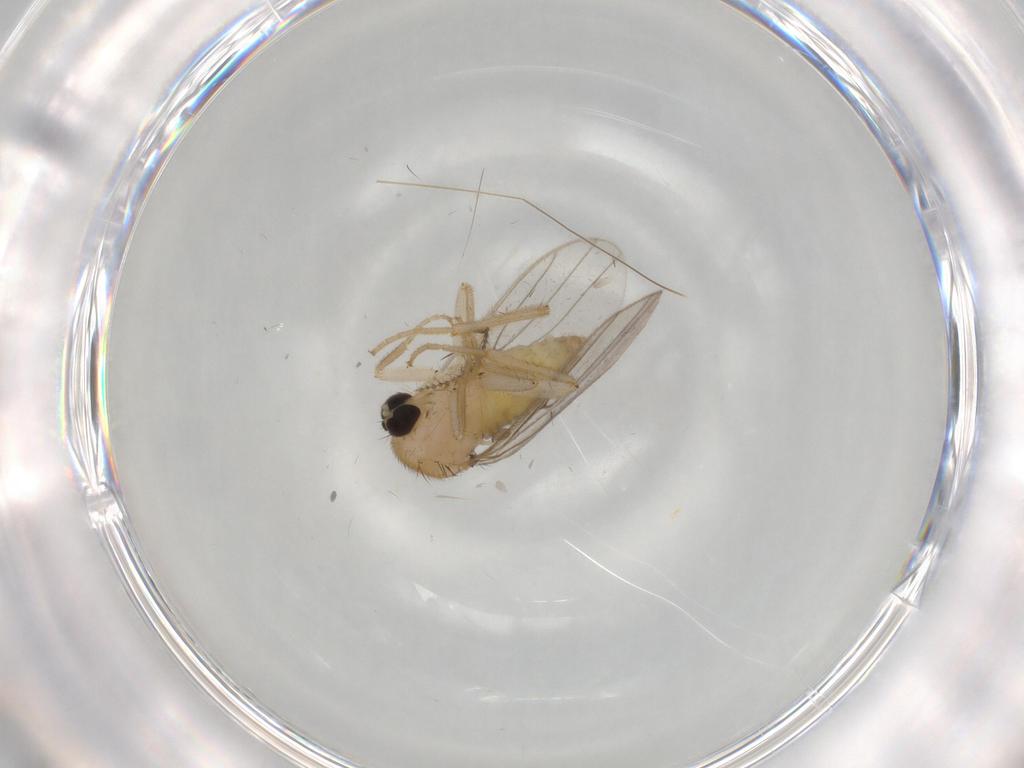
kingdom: Animalia
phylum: Arthropoda
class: Insecta
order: Diptera
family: Hybotidae
